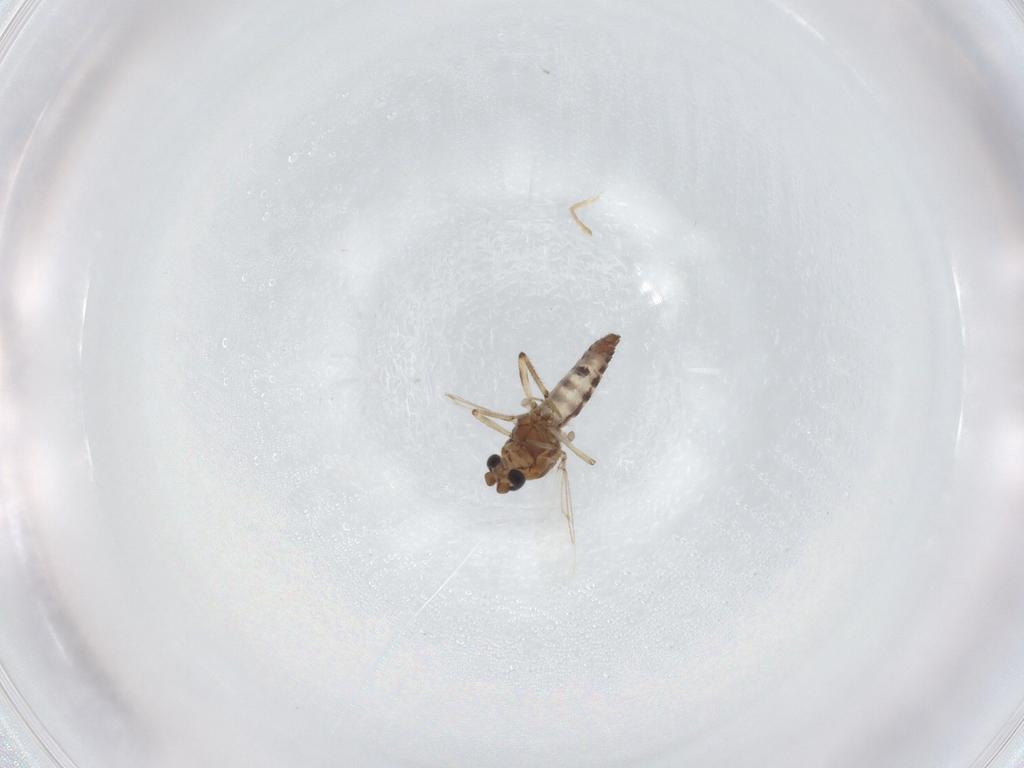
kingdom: Animalia
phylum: Arthropoda
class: Insecta
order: Diptera
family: Ceratopogonidae
